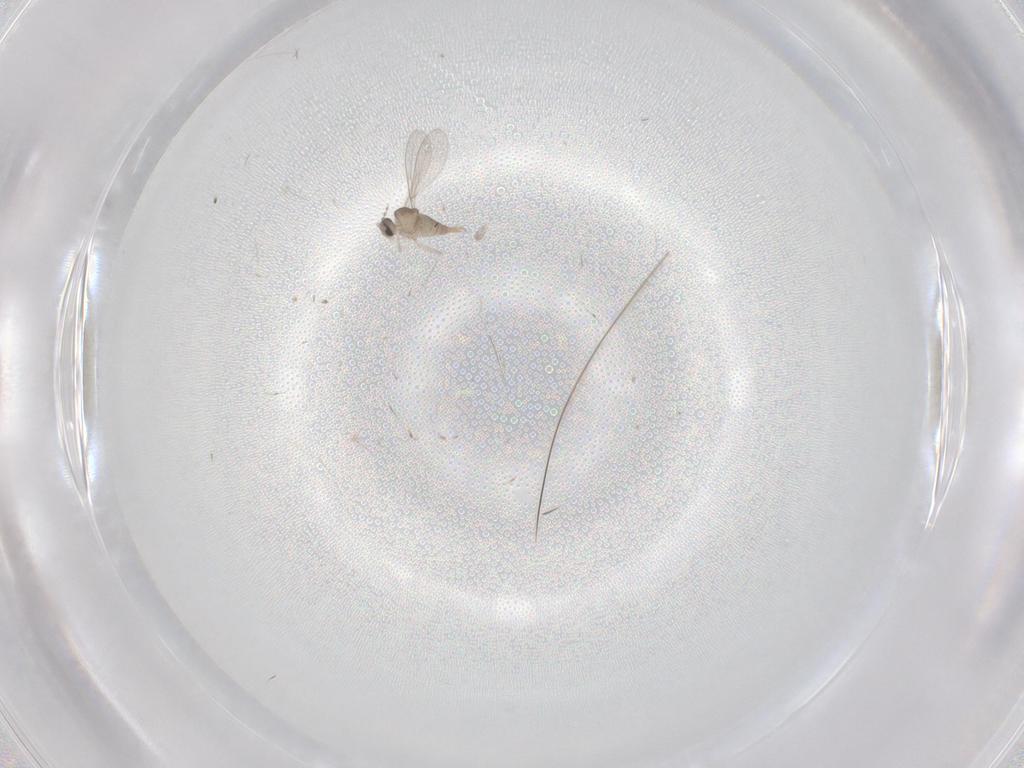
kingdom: Animalia
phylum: Arthropoda
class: Insecta
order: Diptera
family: Cecidomyiidae
